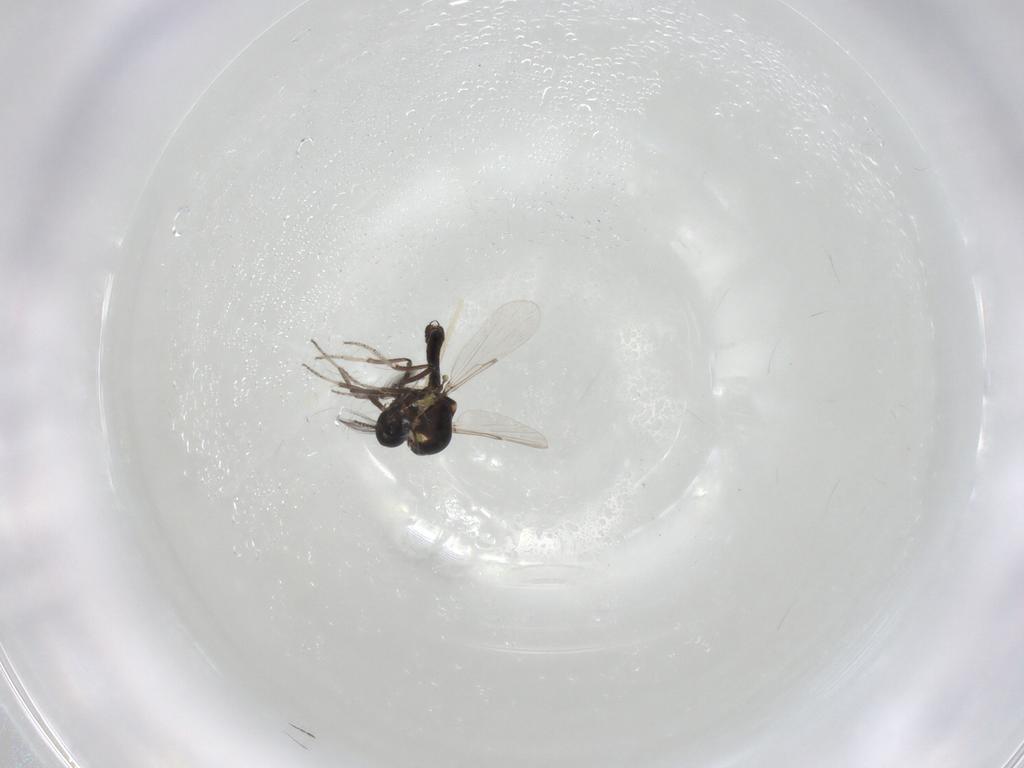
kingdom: Animalia
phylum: Arthropoda
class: Insecta
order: Diptera
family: Ceratopogonidae
